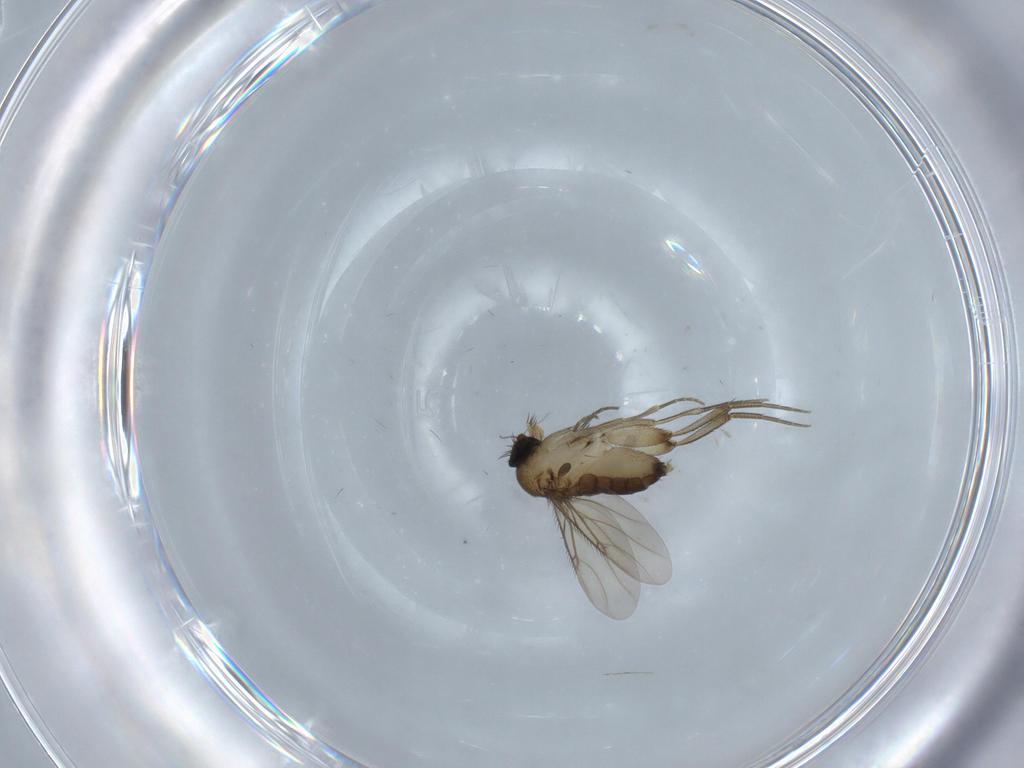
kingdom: Animalia
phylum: Arthropoda
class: Insecta
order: Diptera
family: Phoridae
